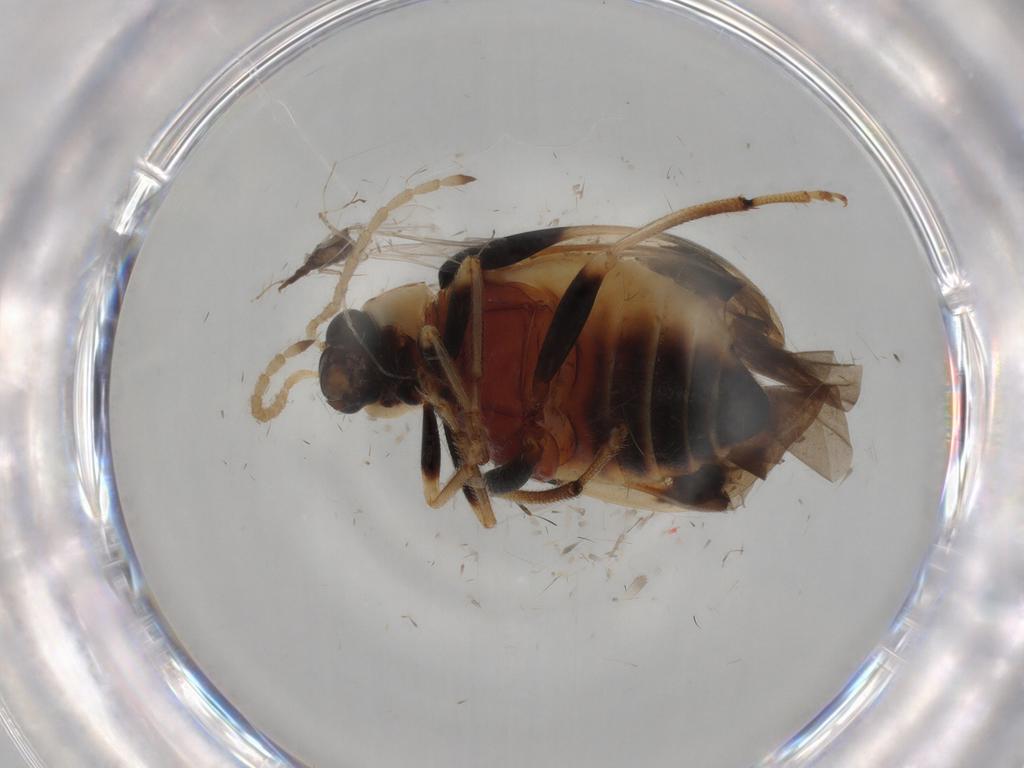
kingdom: Animalia
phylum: Arthropoda
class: Insecta
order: Coleoptera
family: Chrysomelidae
